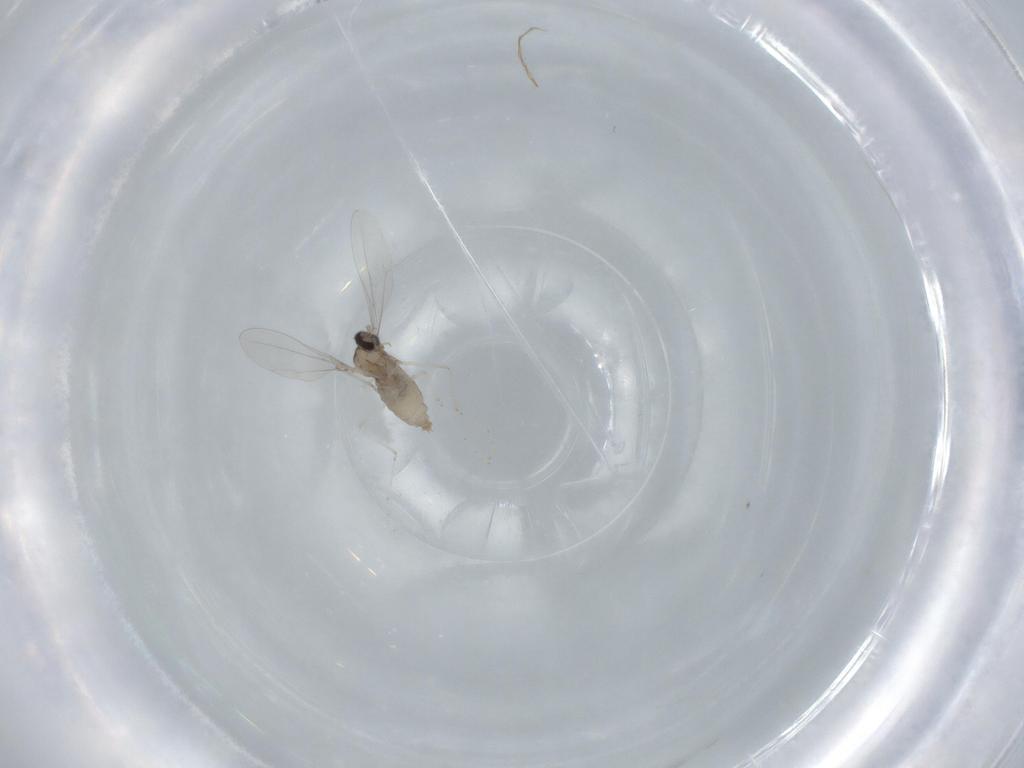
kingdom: Animalia
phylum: Arthropoda
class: Insecta
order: Diptera
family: Cecidomyiidae
